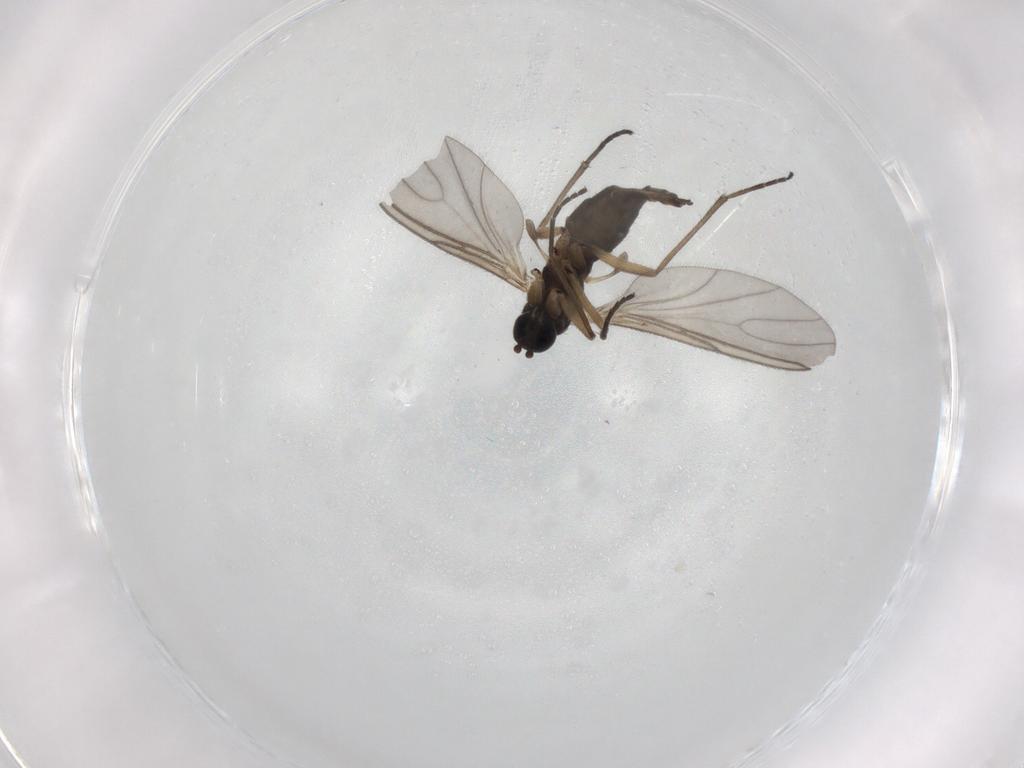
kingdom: Animalia
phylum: Arthropoda
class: Insecta
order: Diptera
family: Sciaridae
